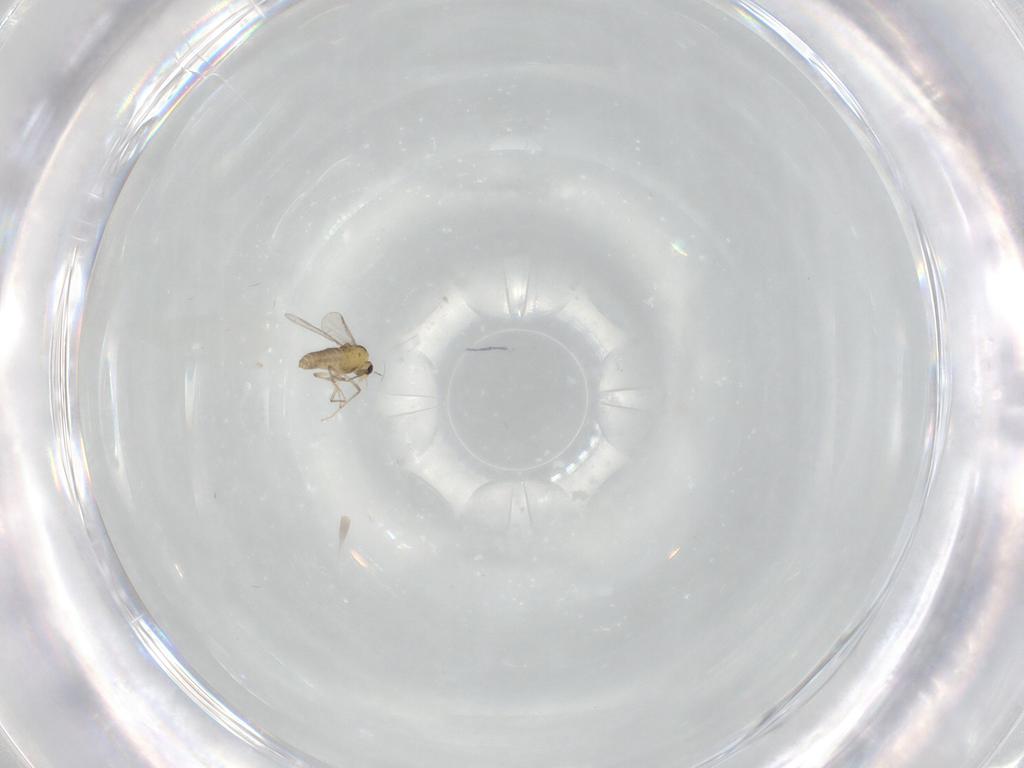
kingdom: Animalia
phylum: Arthropoda
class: Insecta
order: Diptera
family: Chironomidae
